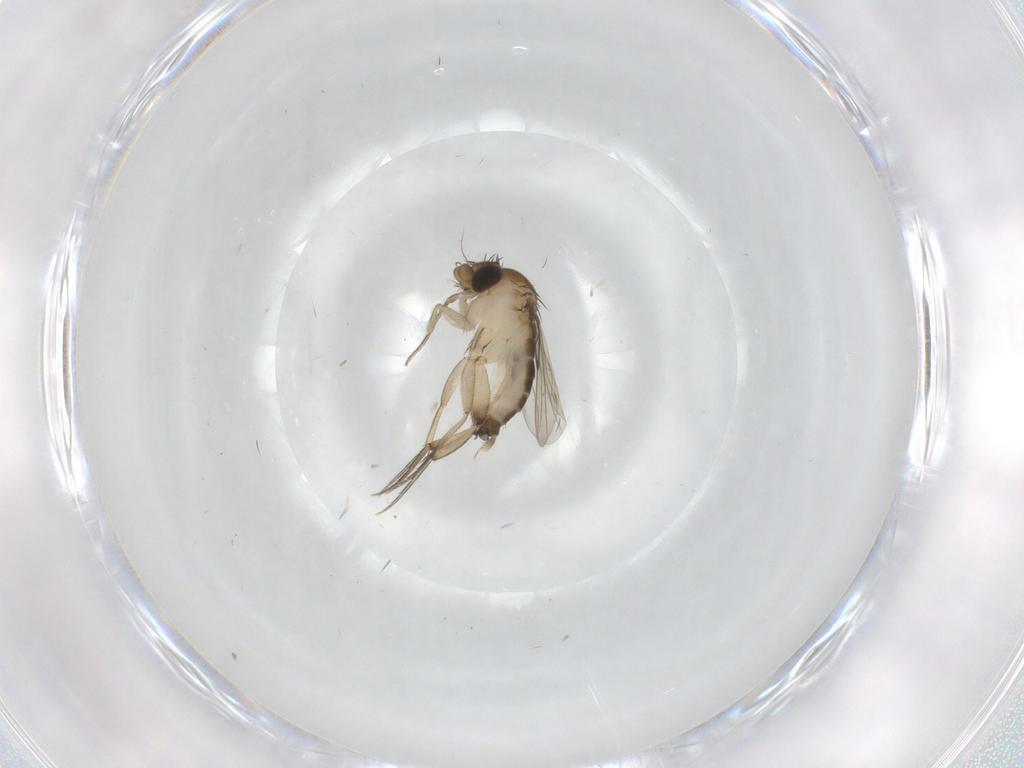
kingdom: Animalia
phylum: Arthropoda
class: Insecta
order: Diptera
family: Phoridae
